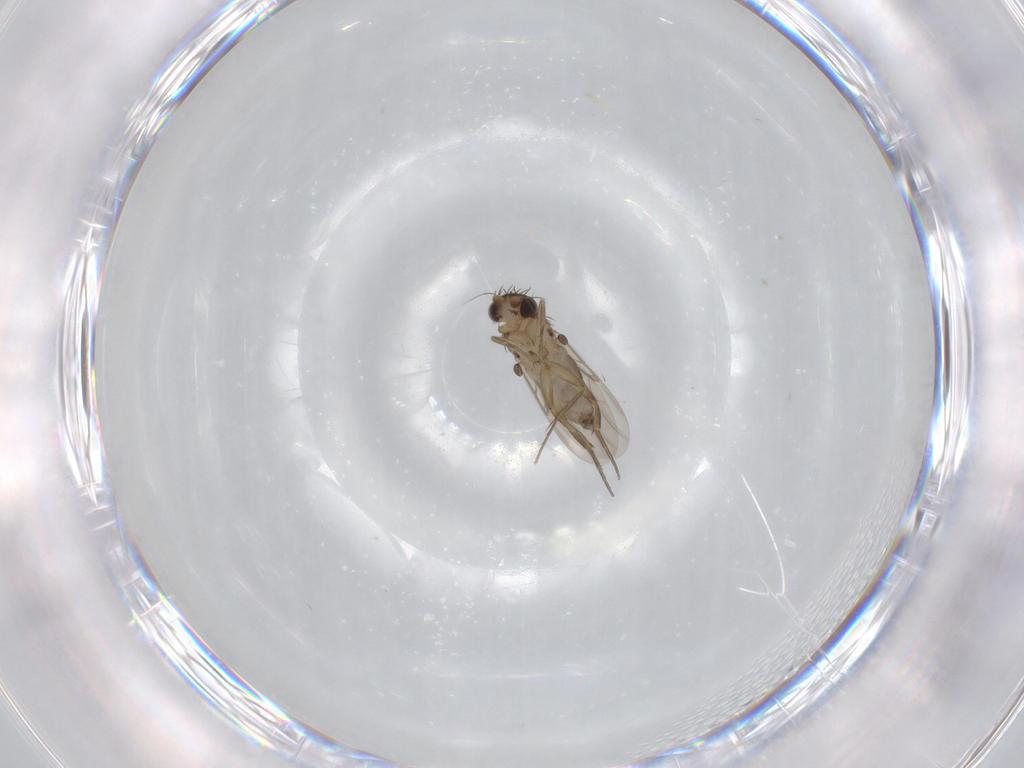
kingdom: Animalia
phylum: Arthropoda
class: Insecta
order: Diptera
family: Phoridae
